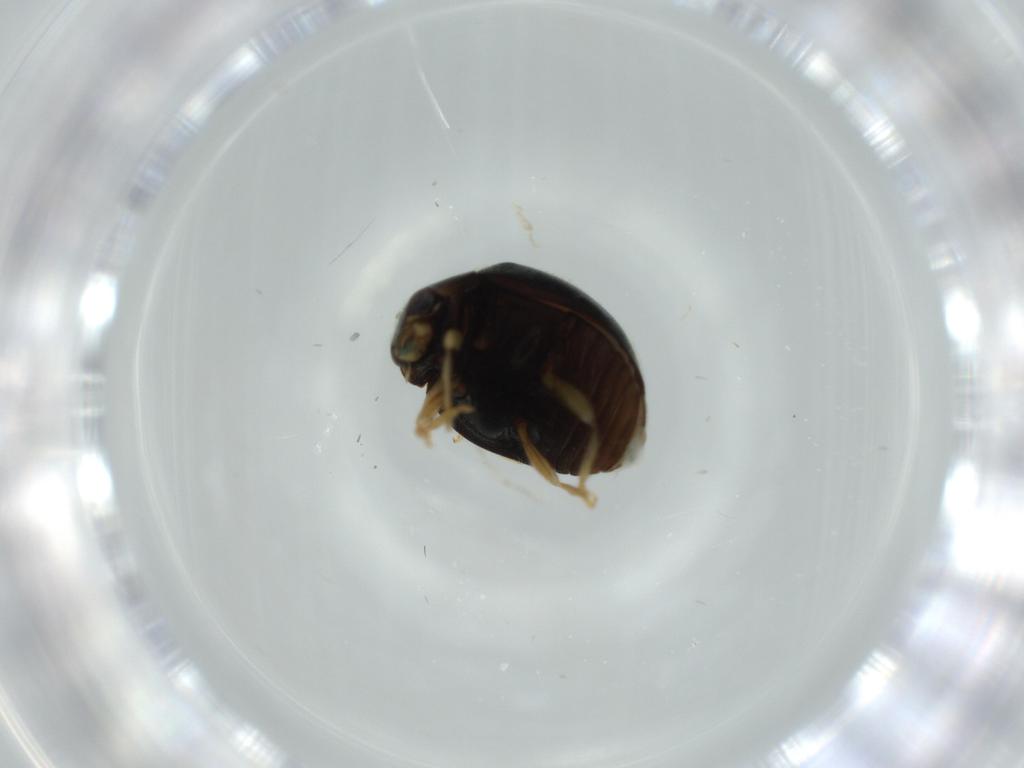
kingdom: Animalia
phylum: Arthropoda
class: Insecta
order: Coleoptera
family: Coccinellidae
